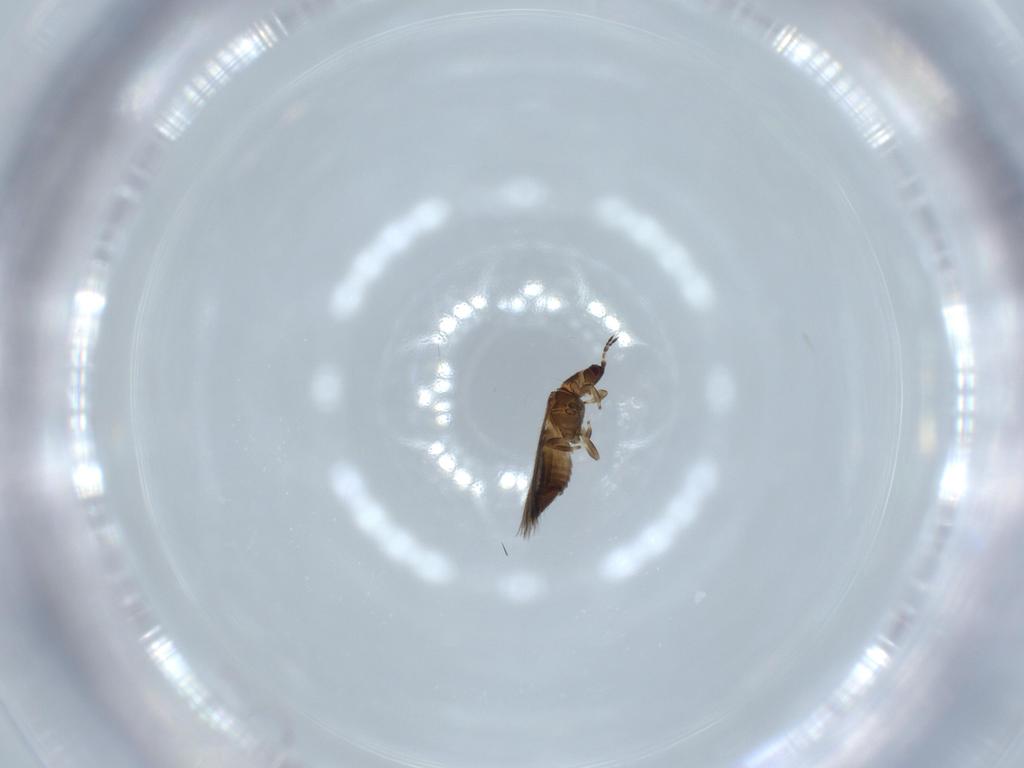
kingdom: Animalia
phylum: Arthropoda
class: Insecta
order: Thysanoptera
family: Thripidae
